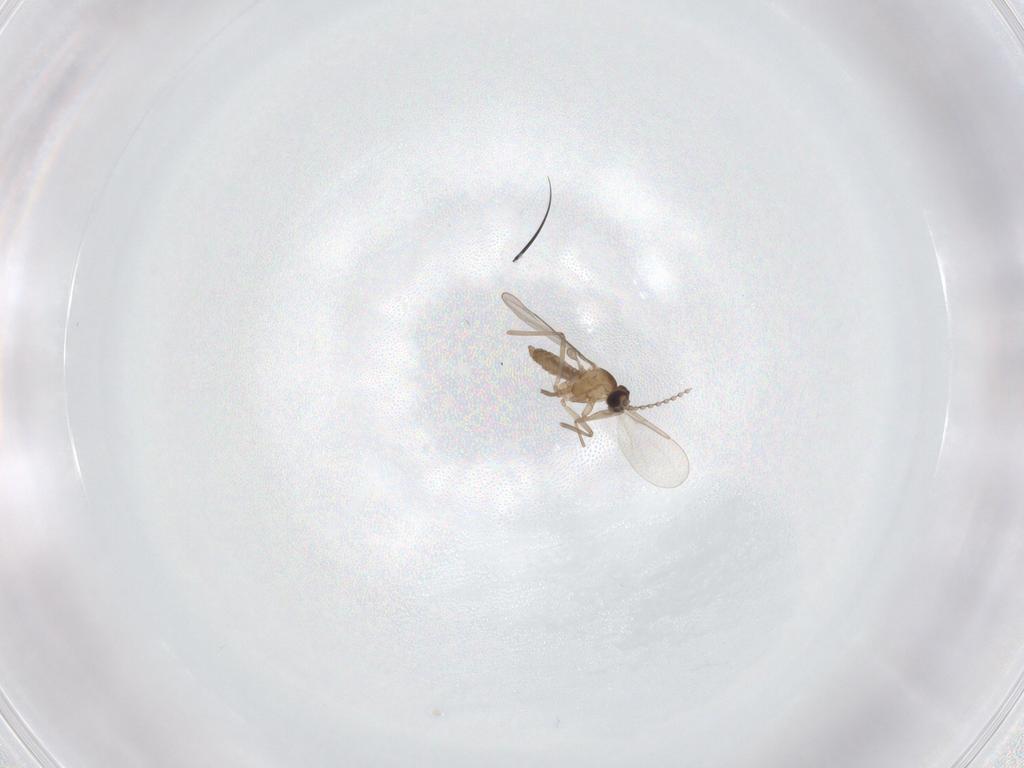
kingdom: Animalia
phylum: Arthropoda
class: Insecta
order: Diptera
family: Cecidomyiidae
